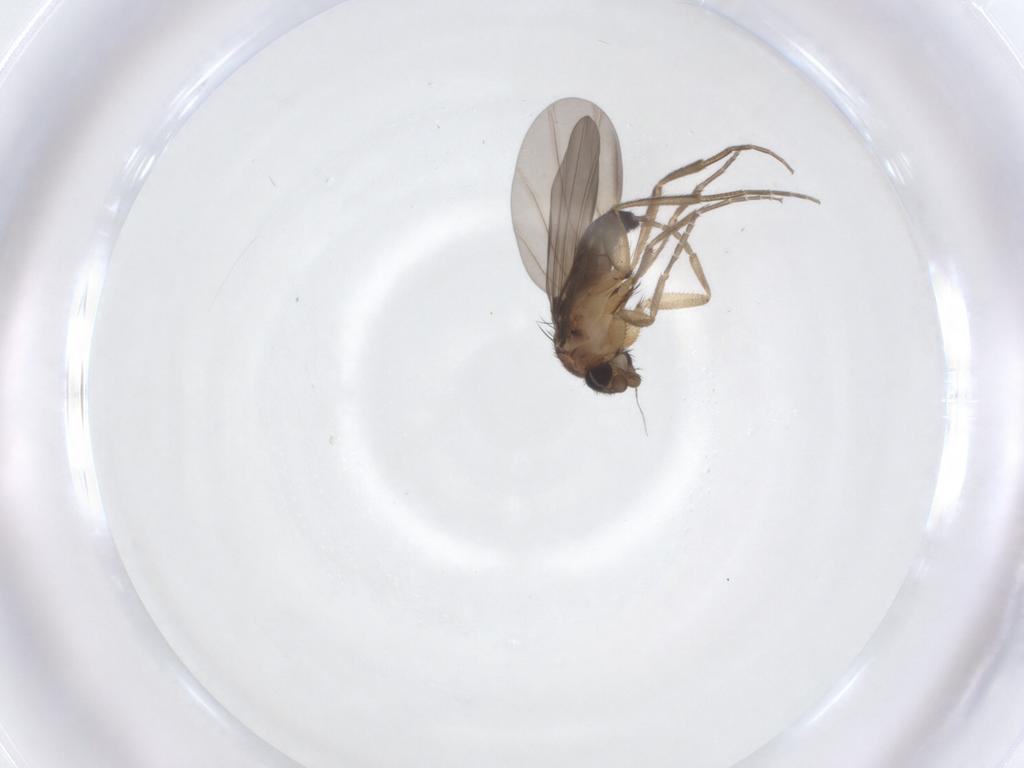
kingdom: Animalia
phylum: Arthropoda
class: Insecta
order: Diptera
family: Phoridae
